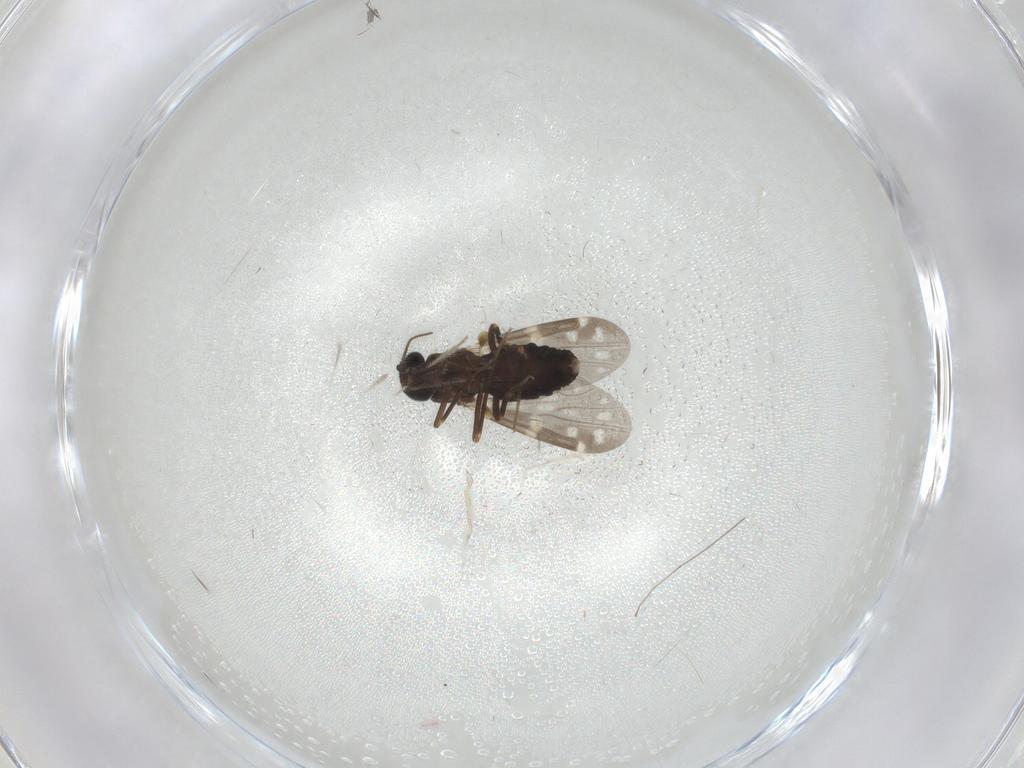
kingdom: Animalia
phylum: Arthropoda
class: Insecta
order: Diptera
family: Cecidomyiidae
